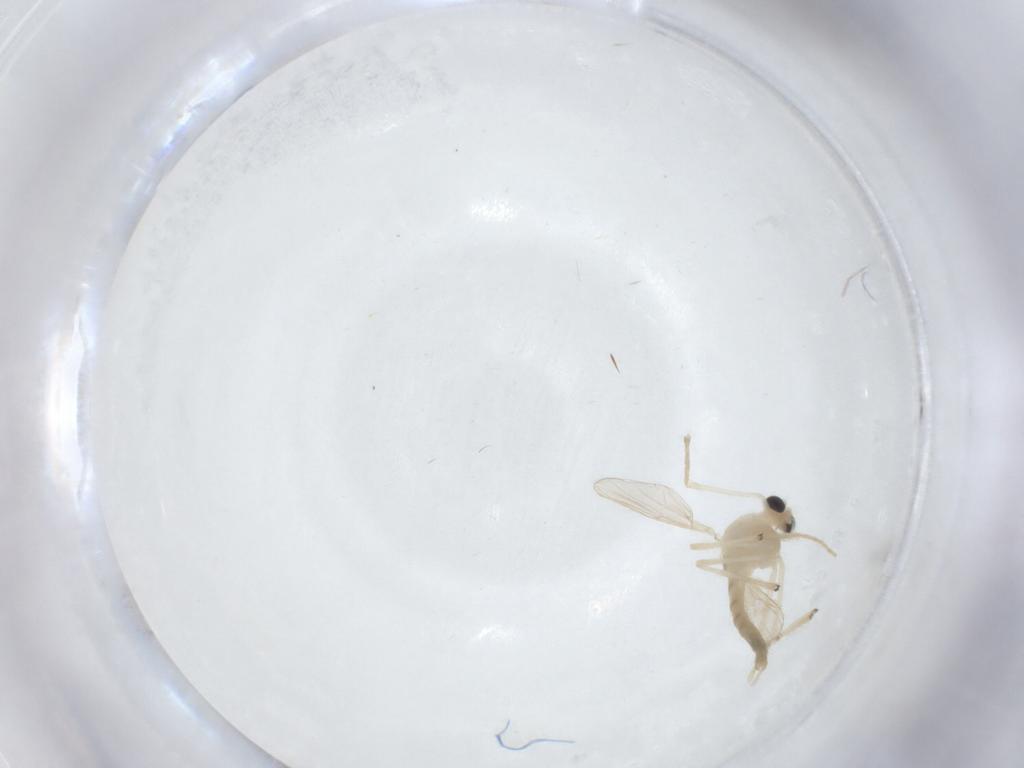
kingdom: Animalia
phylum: Arthropoda
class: Insecta
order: Diptera
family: Chironomidae
